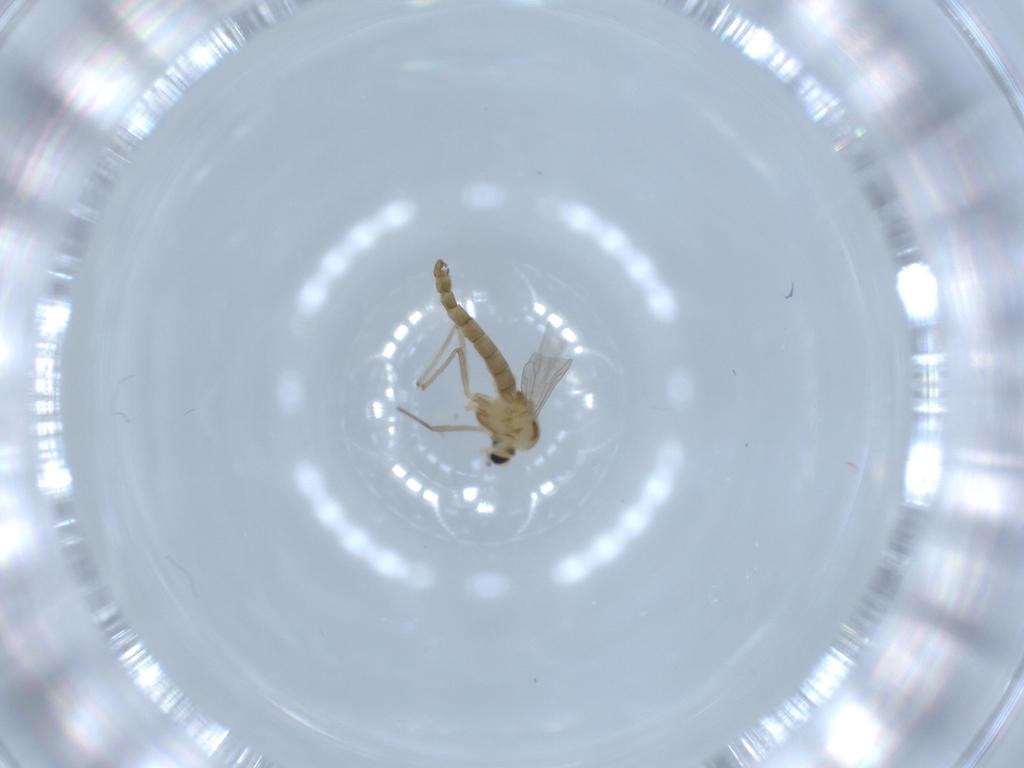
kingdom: Animalia
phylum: Arthropoda
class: Insecta
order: Diptera
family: Chironomidae
